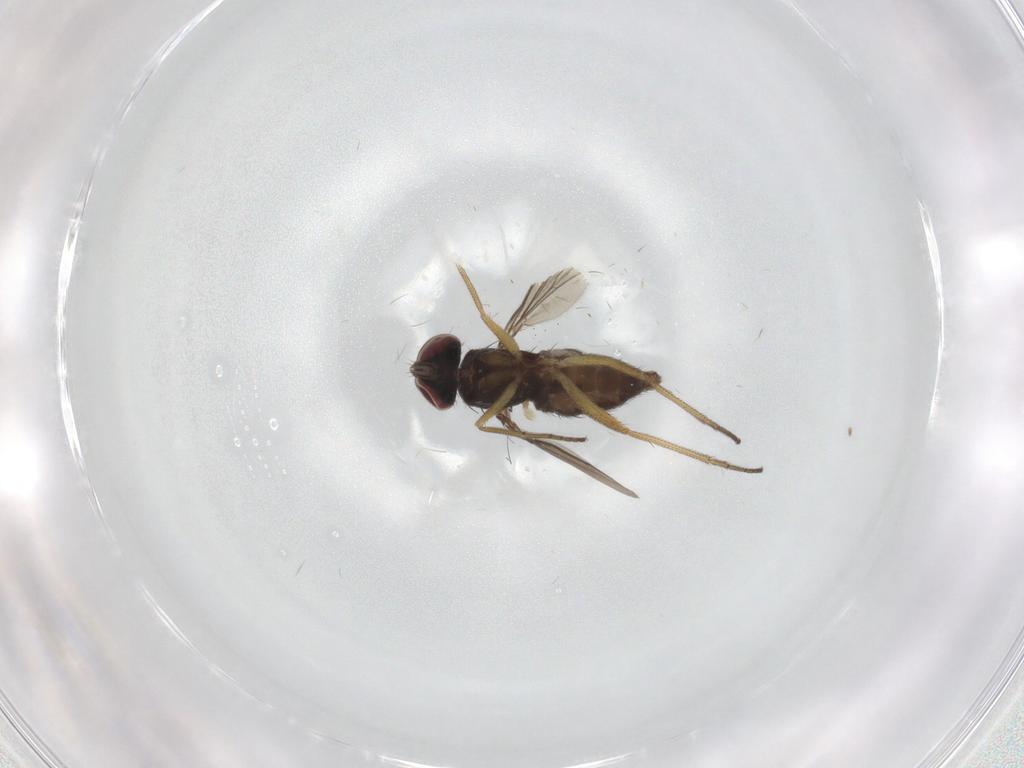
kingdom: Animalia
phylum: Arthropoda
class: Insecta
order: Diptera
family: Dolichopodidae
